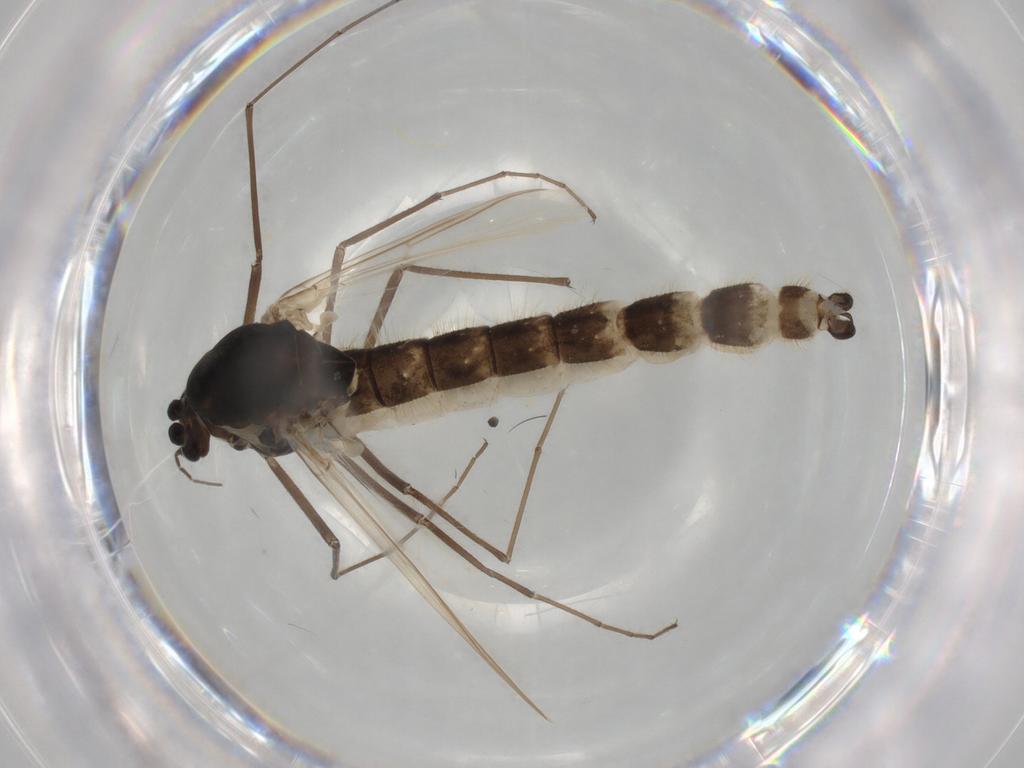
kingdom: Animalia
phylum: Arthropoda
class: Insecta
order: Diptera
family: Chironomidae
